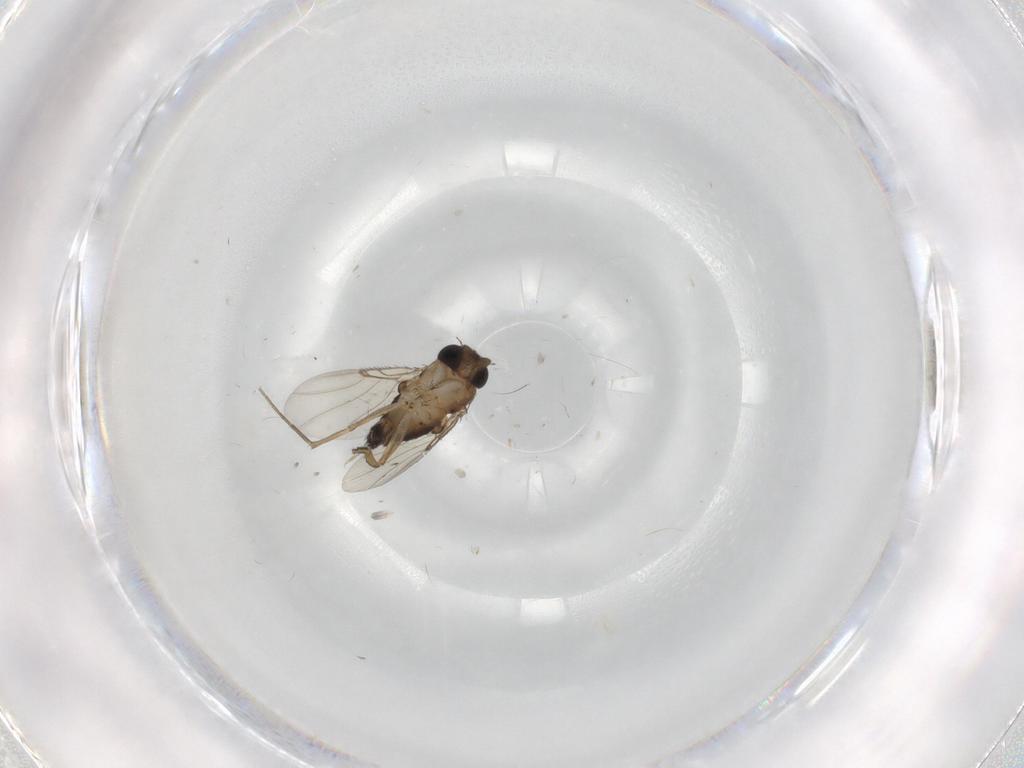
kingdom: Animalia
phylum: Arthropoda
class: Insecta
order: Diptera
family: Phoridae
